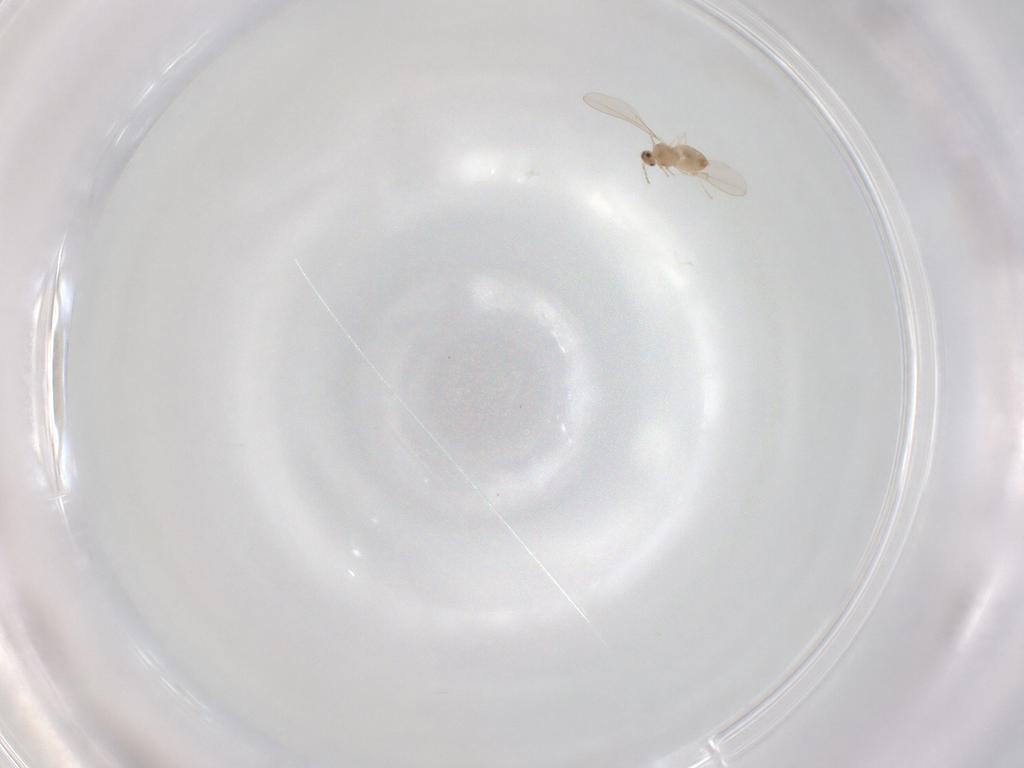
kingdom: Animalia
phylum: Arthropoda
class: Insecta
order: Diptera
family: Cecidomyiidae
